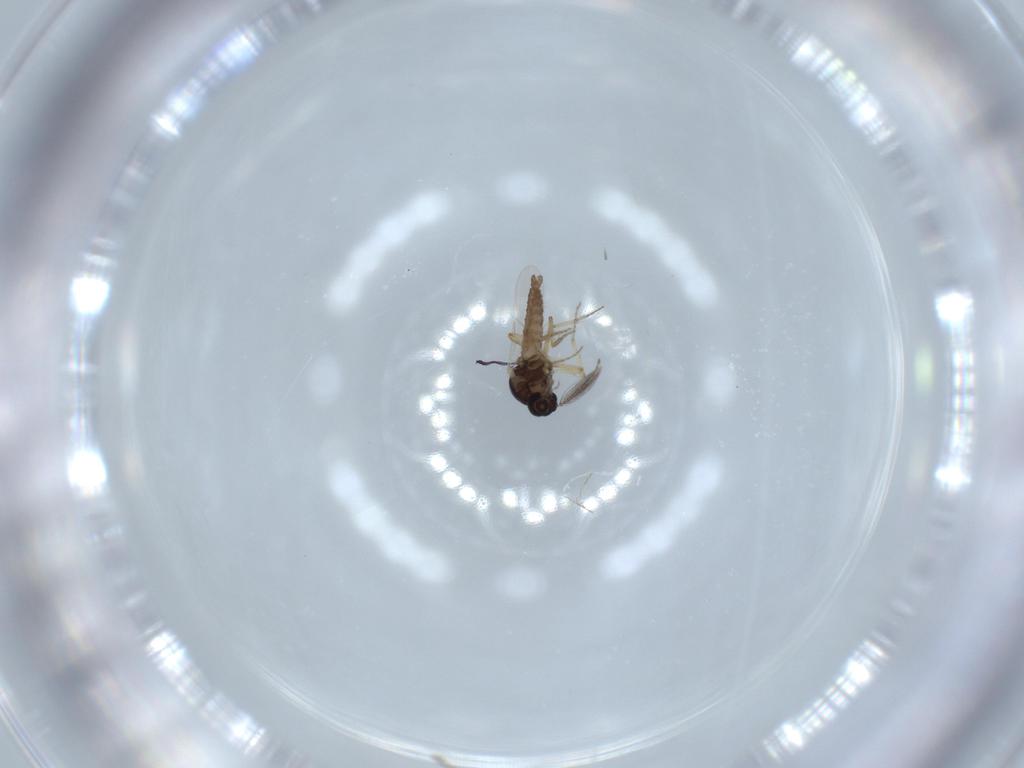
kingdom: Animalia
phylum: Arthropoda
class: Insecta
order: Diptera
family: Ceratopogonidae
